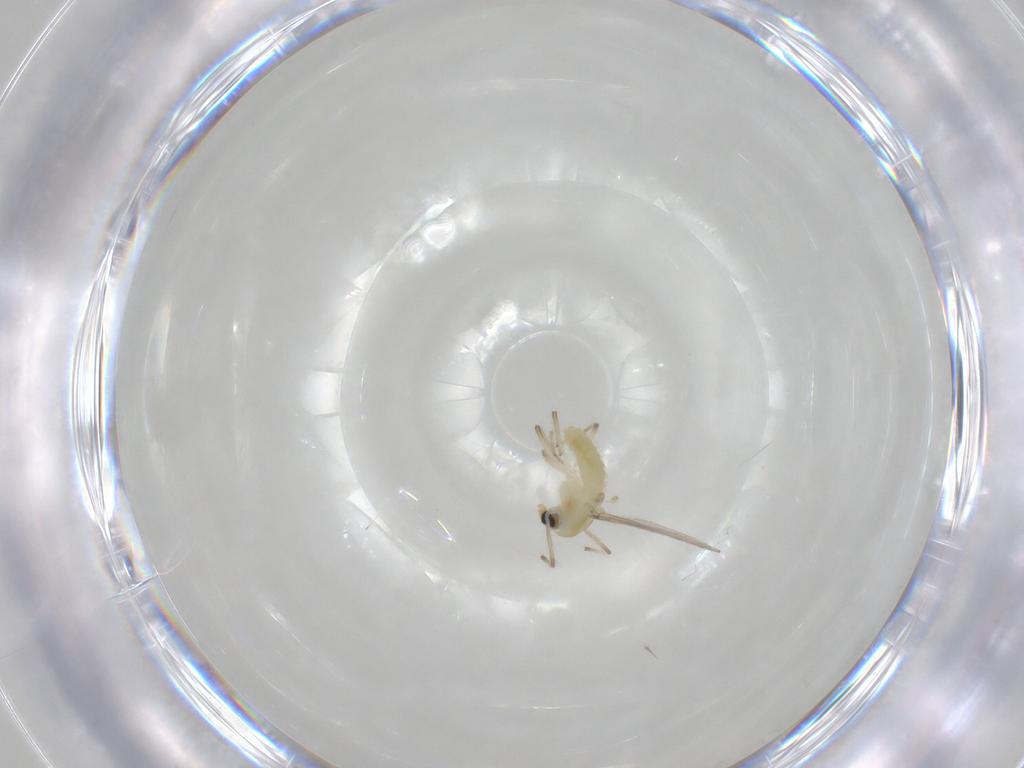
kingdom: Animalia
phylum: Arthropoda
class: Insecta
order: Diptera
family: Chironomidae
